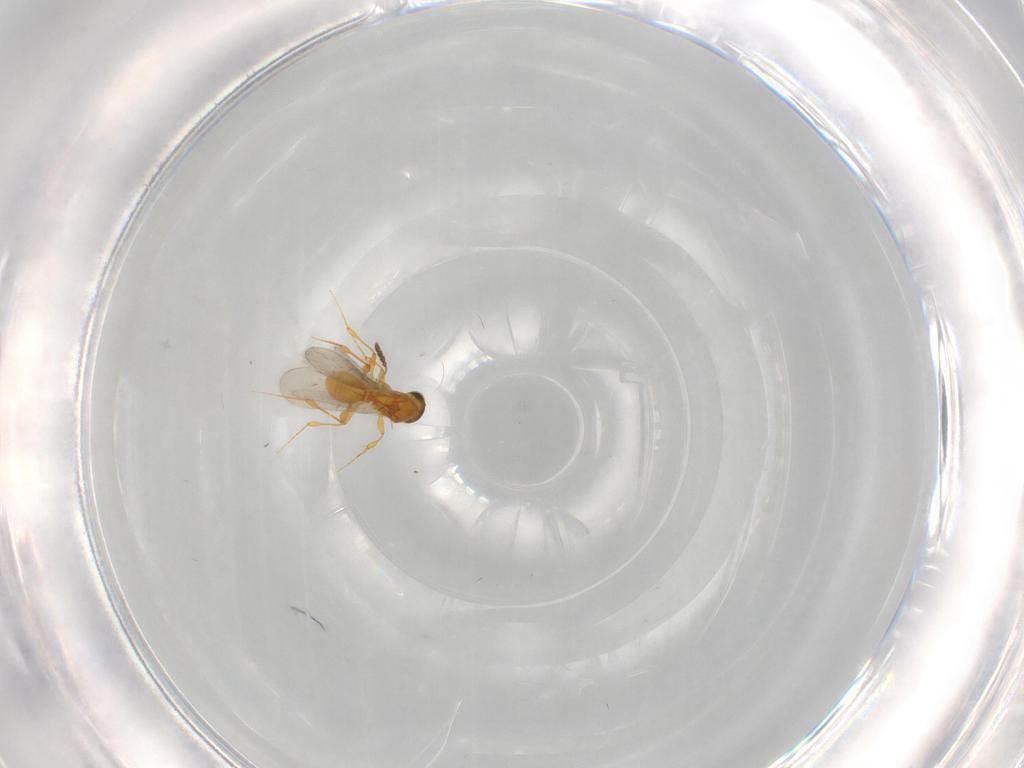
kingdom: Animalia
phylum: Arthropoda
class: Insecta
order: Hymenoptera
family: Platygastridae
